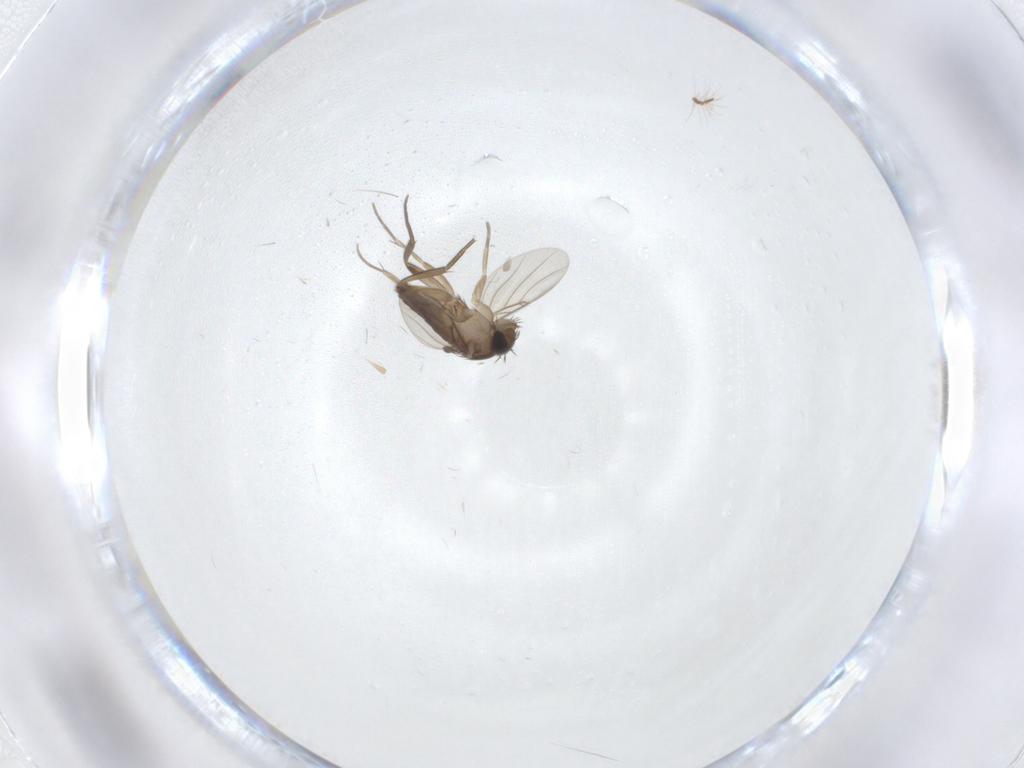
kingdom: Animalia
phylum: Arthropoda
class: Insecta
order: Diptera
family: Phoridae
